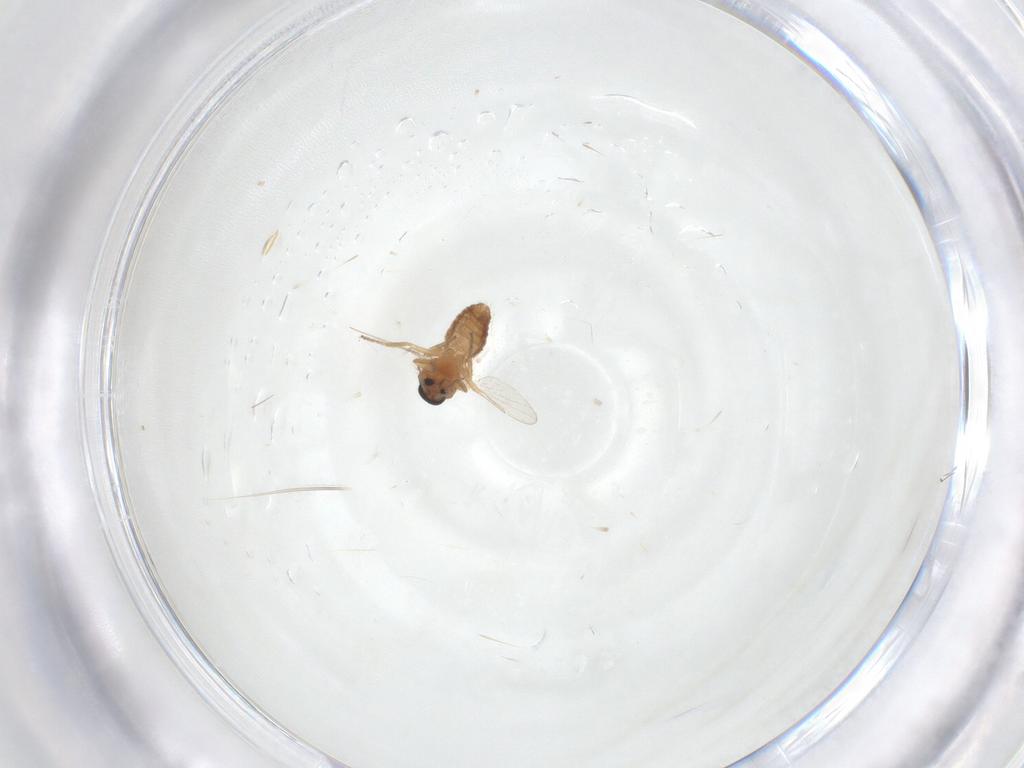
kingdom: Animalia
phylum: Arthropoda
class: Insecta
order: Diptera
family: Ceratopogonidae
